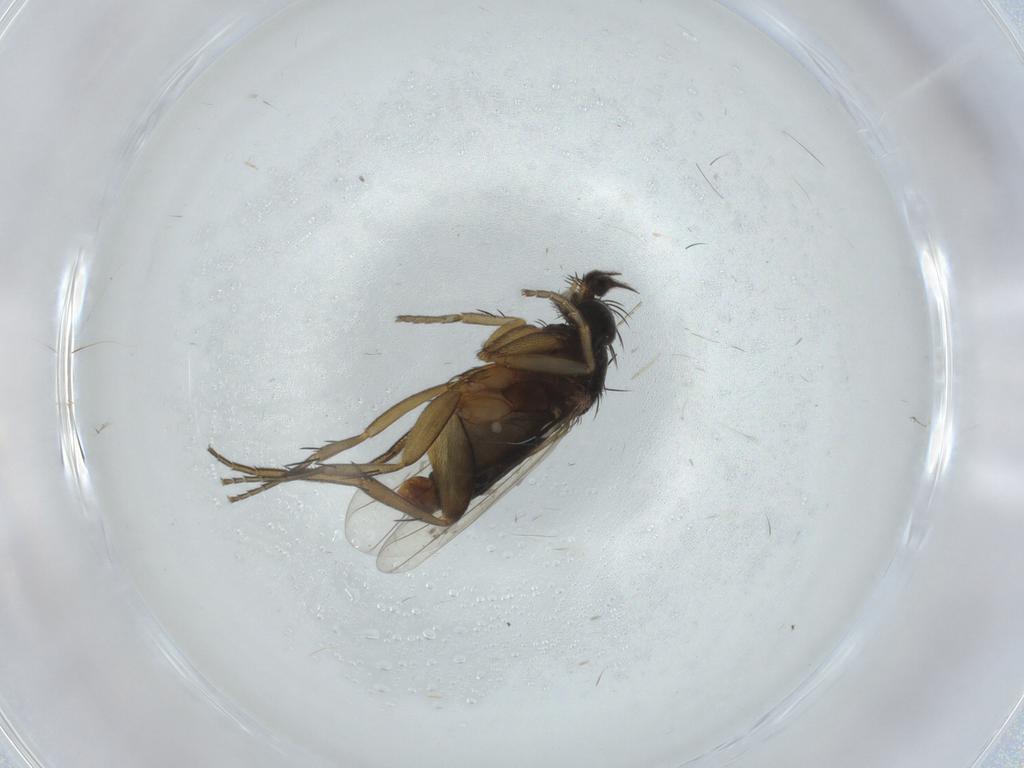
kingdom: Animalia
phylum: Arthropoda
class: Insecta
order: Diptera
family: Phoridae
